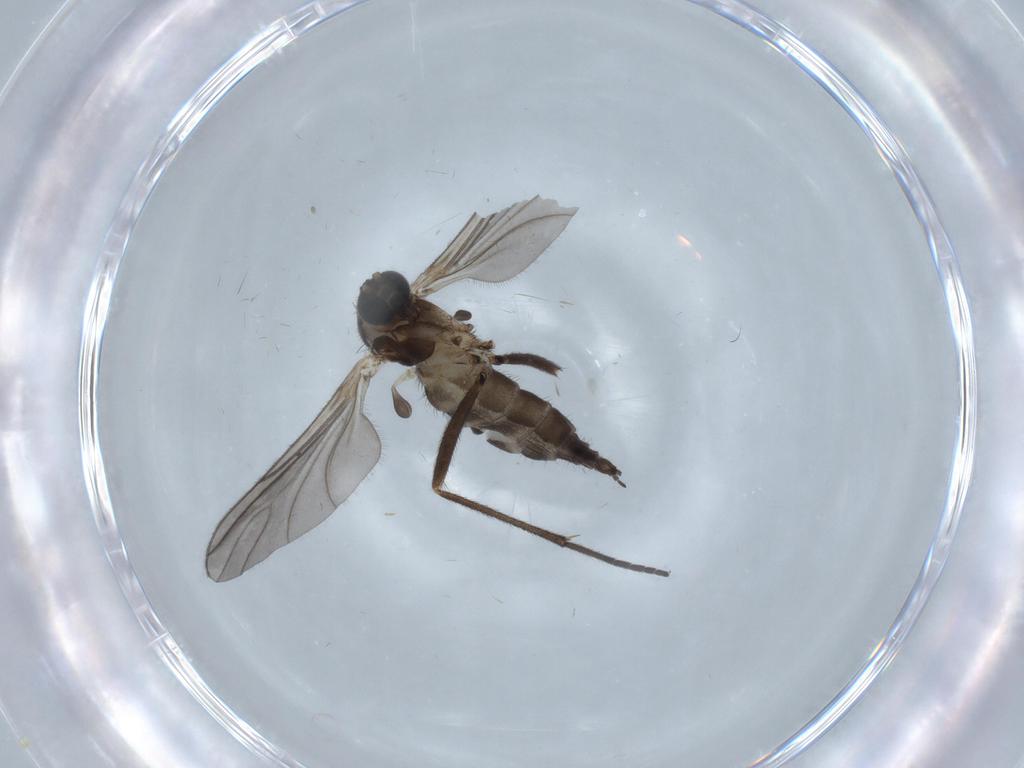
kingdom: Animalia
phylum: Arthropoda
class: Insecta
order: Diptera
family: Sciaridae
